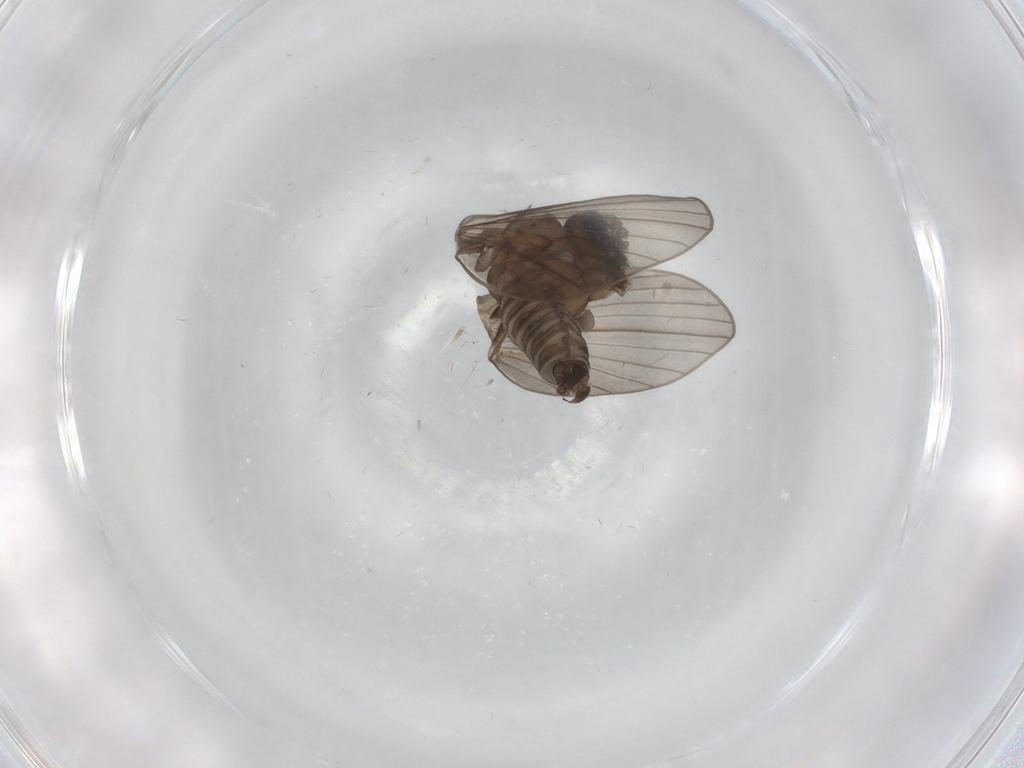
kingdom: Animalia
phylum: Arthropoda
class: Insecta
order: Diptera
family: Psychodidae
